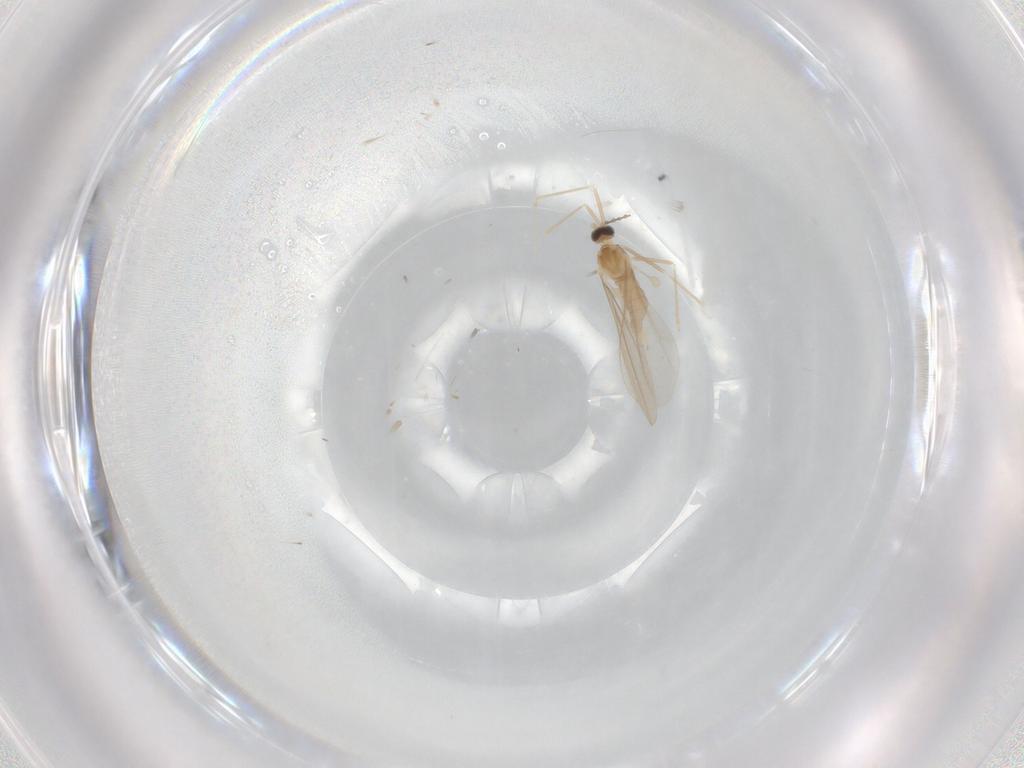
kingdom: Animalia
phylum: Arthropoda
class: Insecta
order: Diptera
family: Cecidomyiidae
